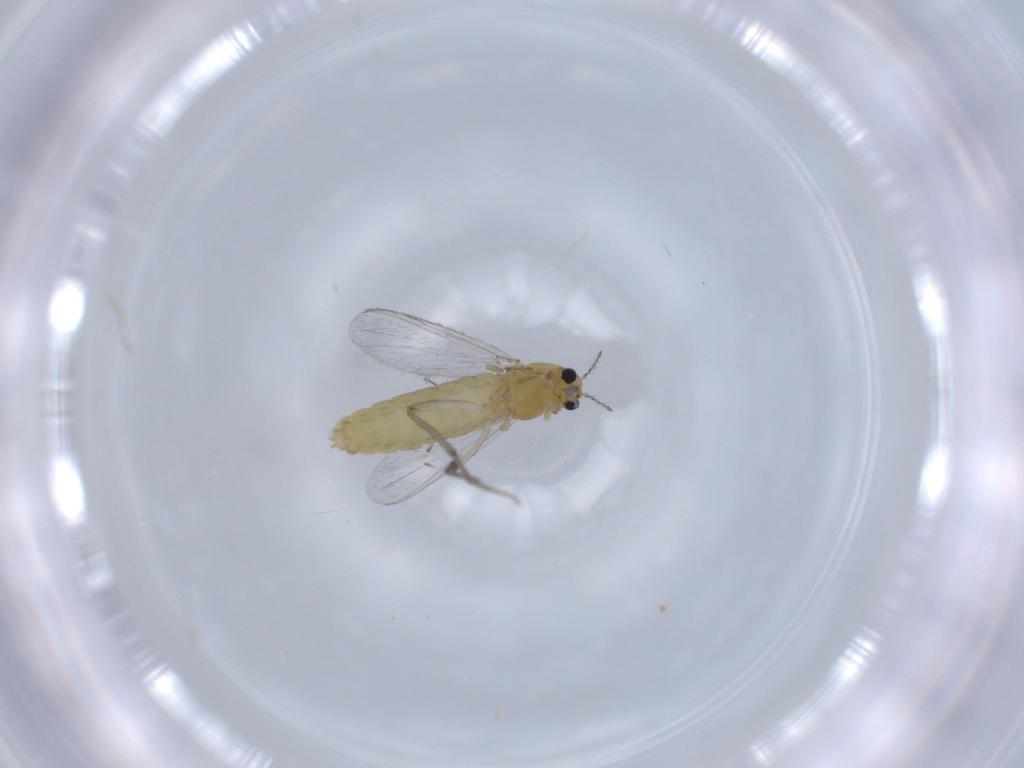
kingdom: Animalia
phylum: Arthropoda
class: Insecta
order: Diptera
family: Chironomidae
